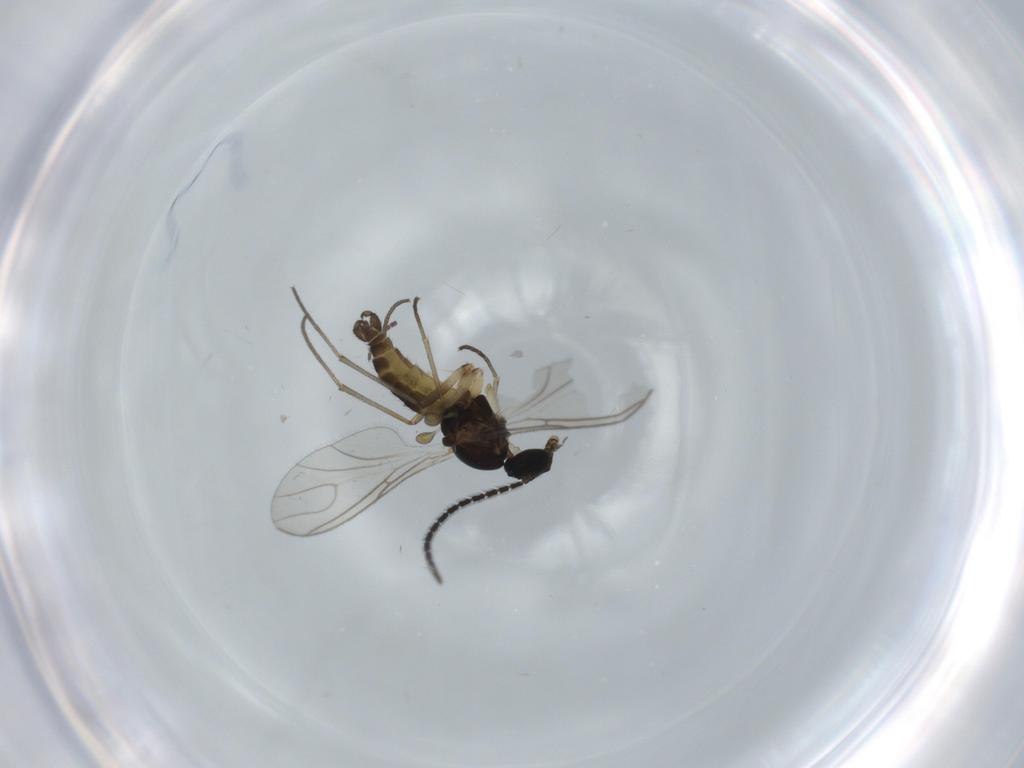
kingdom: Animalia
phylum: Arthropoda
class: Insecta
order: Diptera
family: Sciaridae
